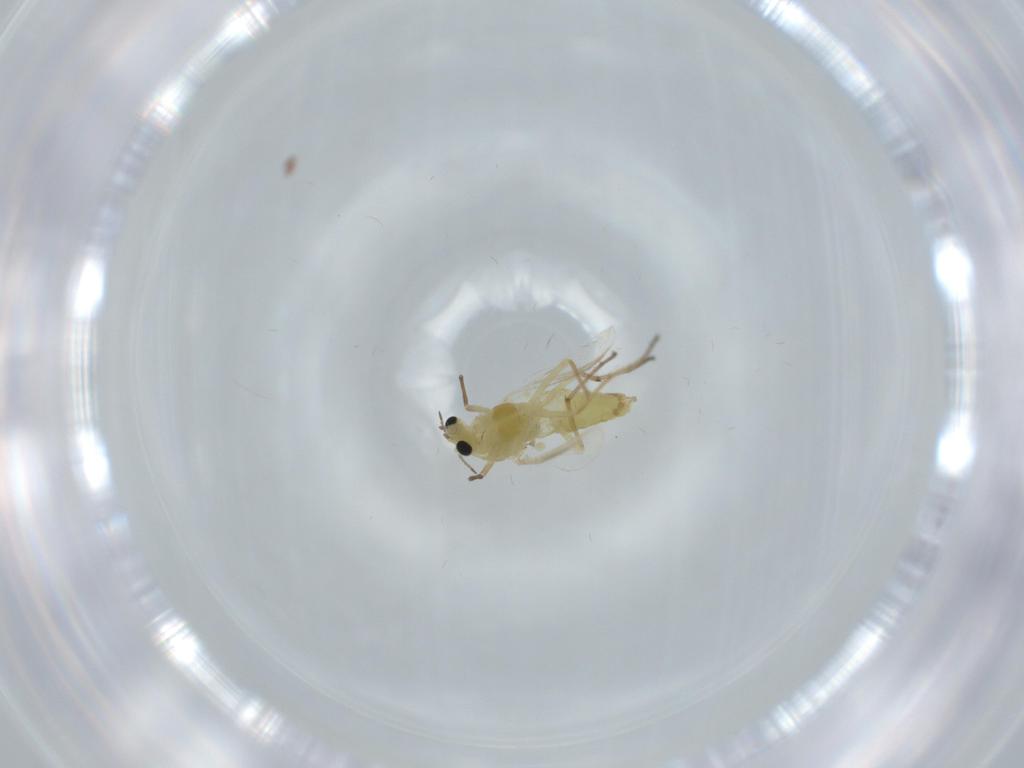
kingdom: Animalia
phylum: Arthropoda
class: Insecta
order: Diptera
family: Chironomidae
